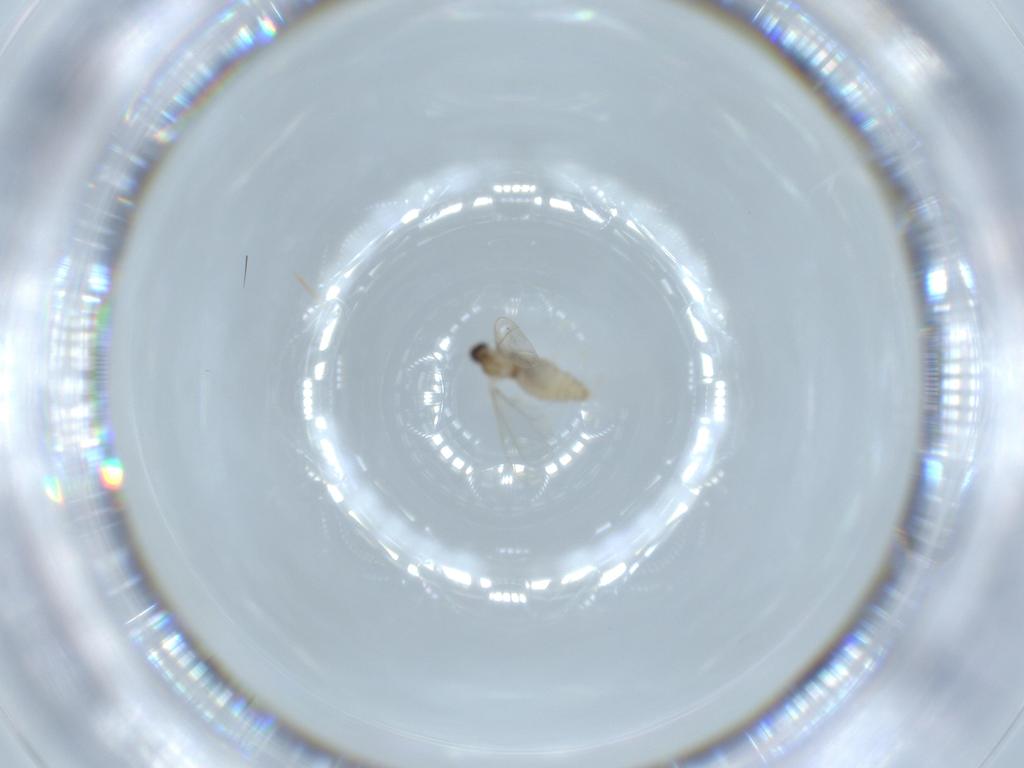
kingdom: Animalia
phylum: Arthropoda
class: Insecta
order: Diptera
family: Cecidomyiidae
